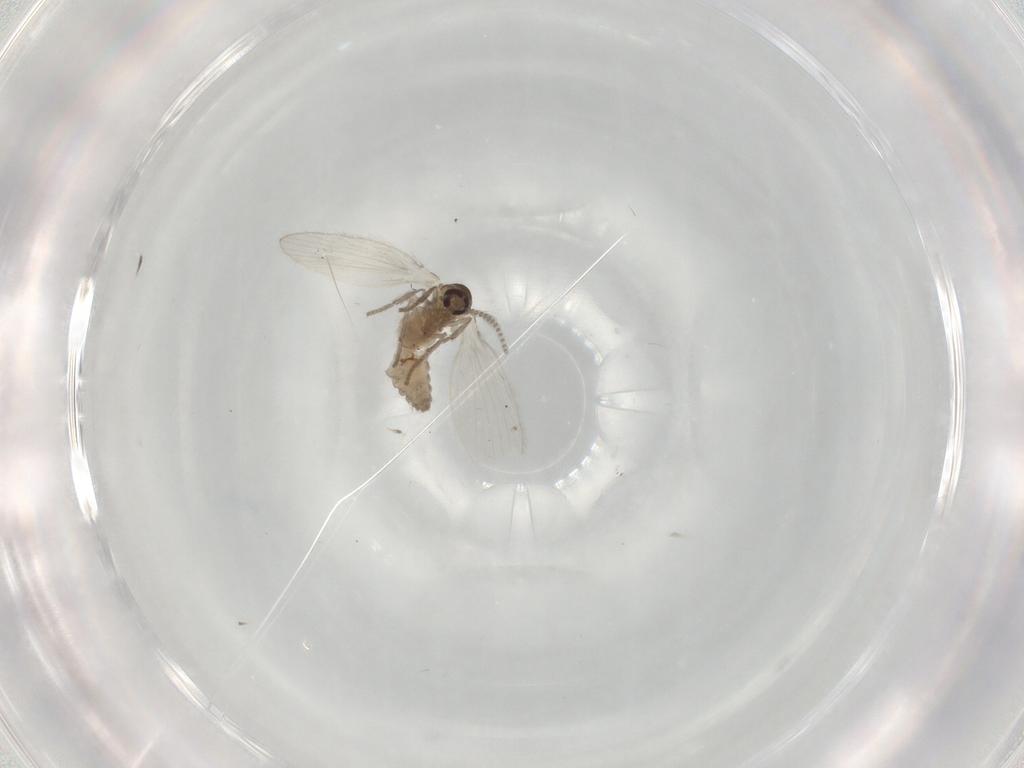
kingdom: Animalia
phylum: Arthropoda
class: Insecta
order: Diptera
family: Psychodidae
